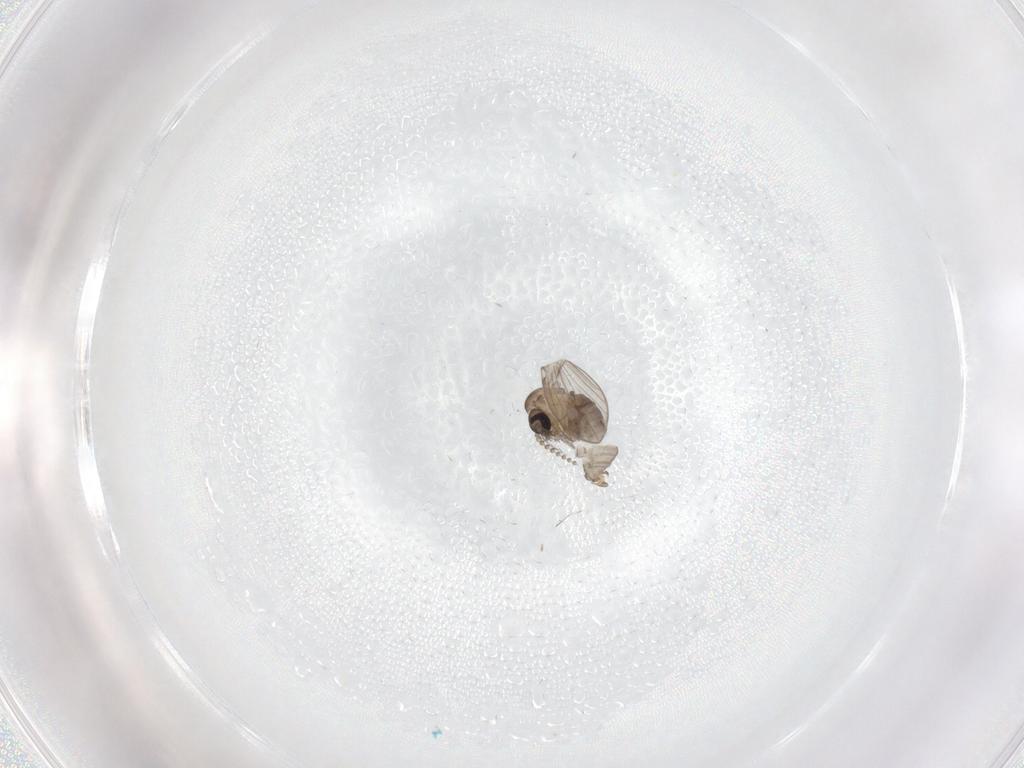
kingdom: Animalia
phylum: Arthropoda
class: Insecta
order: Diptera
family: Psychodidae
